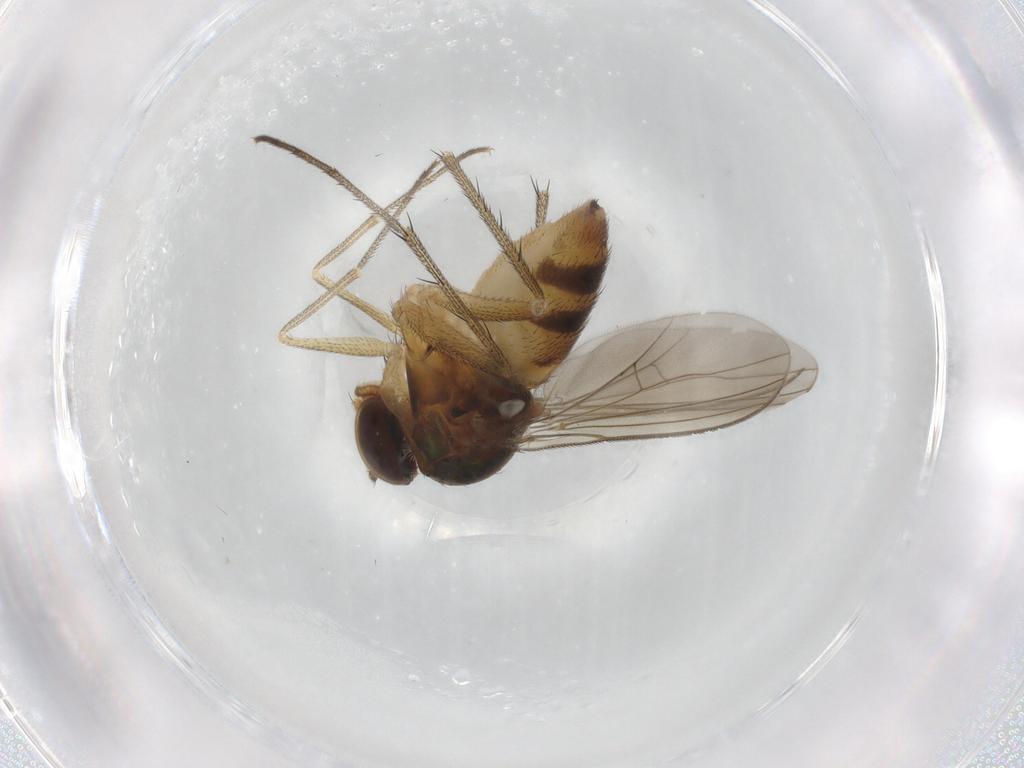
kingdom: Animalia
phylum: Arthropoda
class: Insecta
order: Diptera
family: Dolichopodidae
